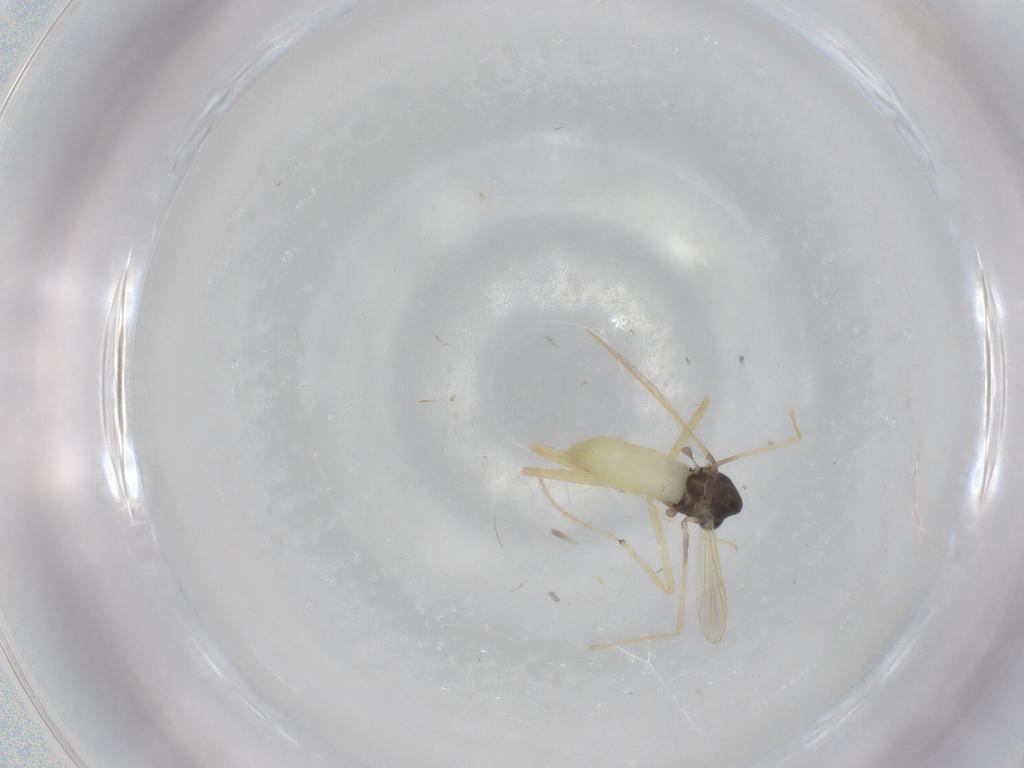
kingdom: Animalia
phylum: Arthropoda
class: Insecta
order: Diptera
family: Chironomidae
